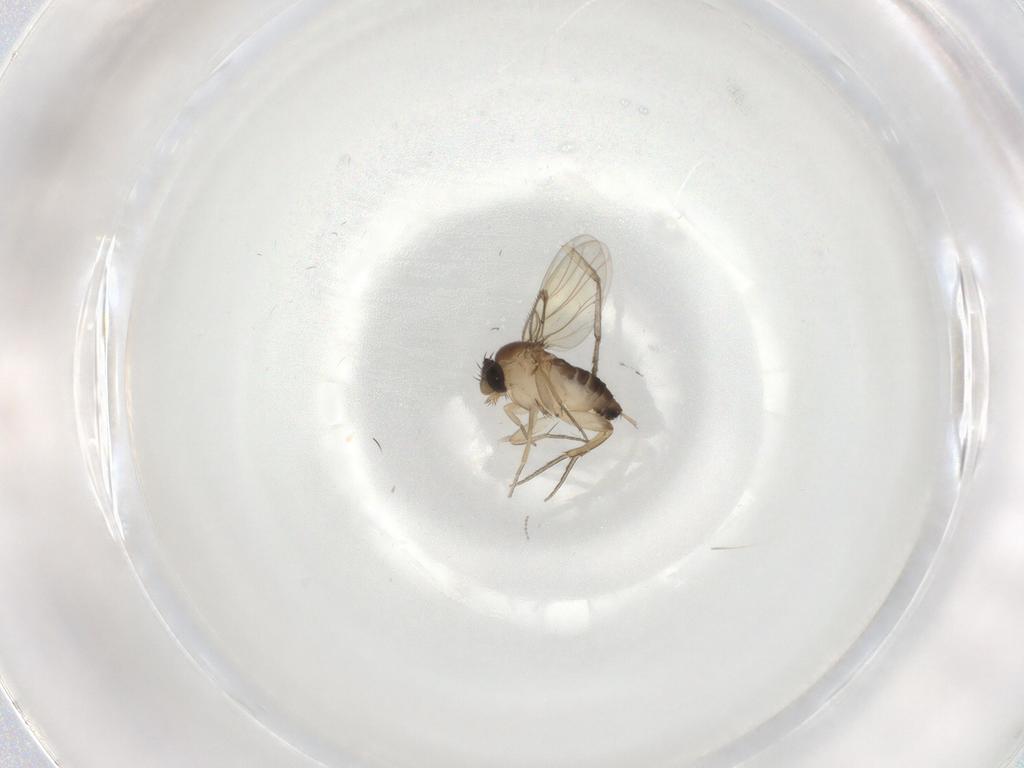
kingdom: Animalia
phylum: Arthropoda
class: Insecta
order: Diptera
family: Phoridae
